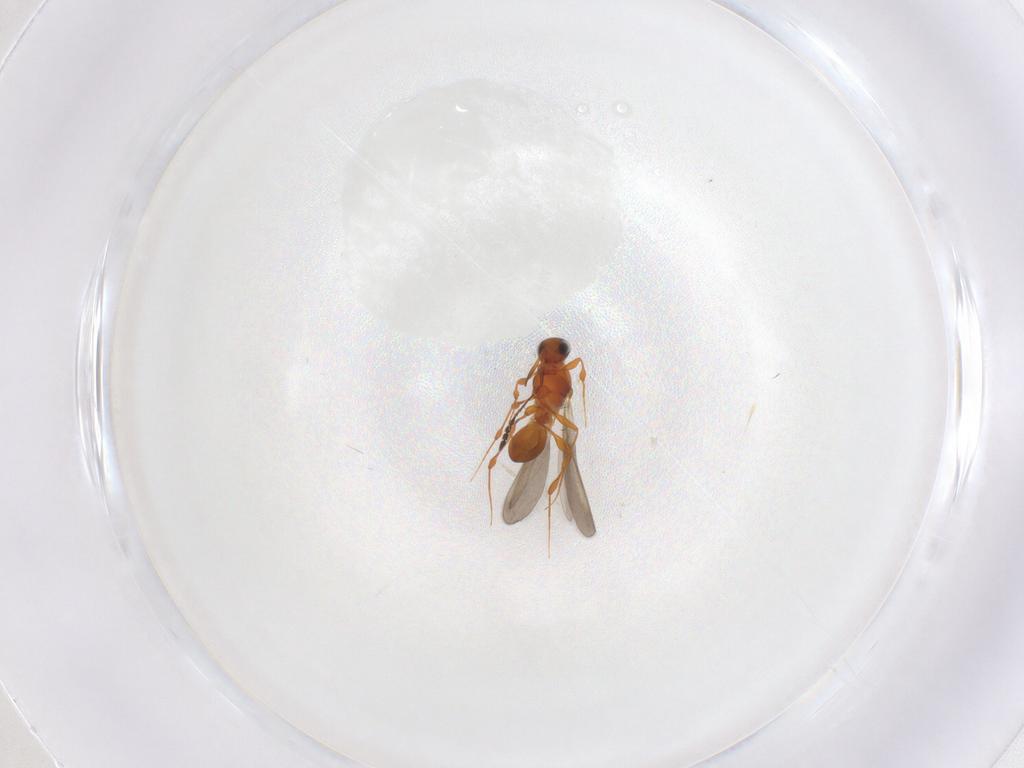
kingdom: Animalia
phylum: Arthropoda
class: Insecta
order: Hymenoptera
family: Platygastridae
